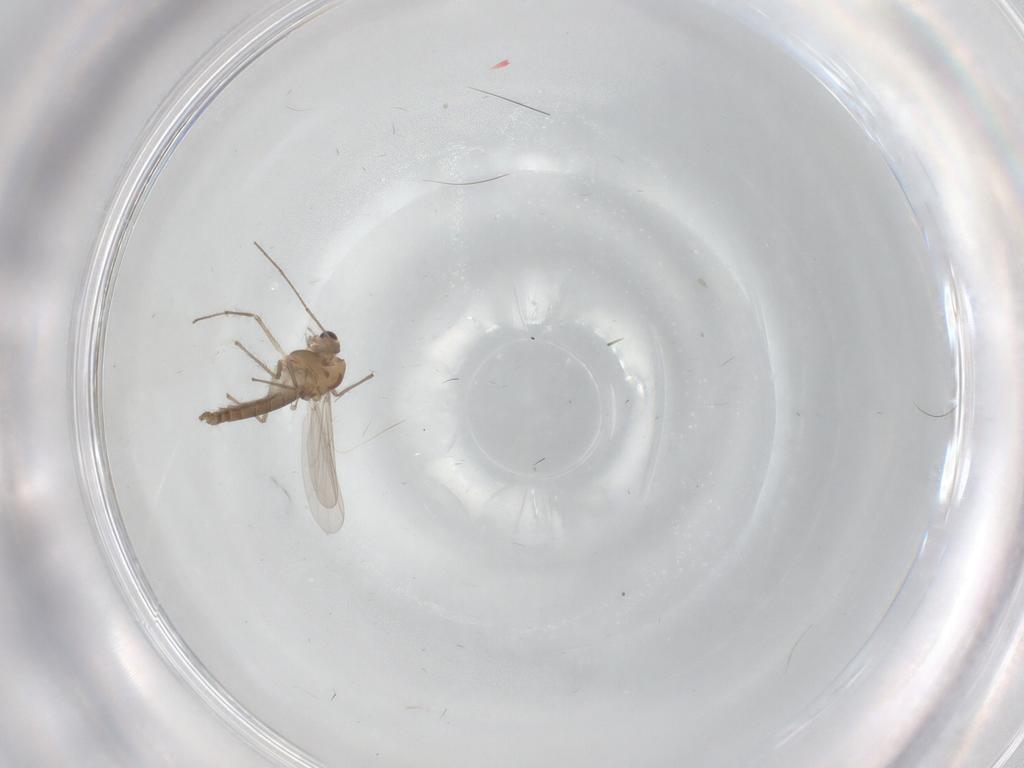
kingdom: Animalia
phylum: Arthropoda
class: Insecta
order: Diptera
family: Chironomidae
